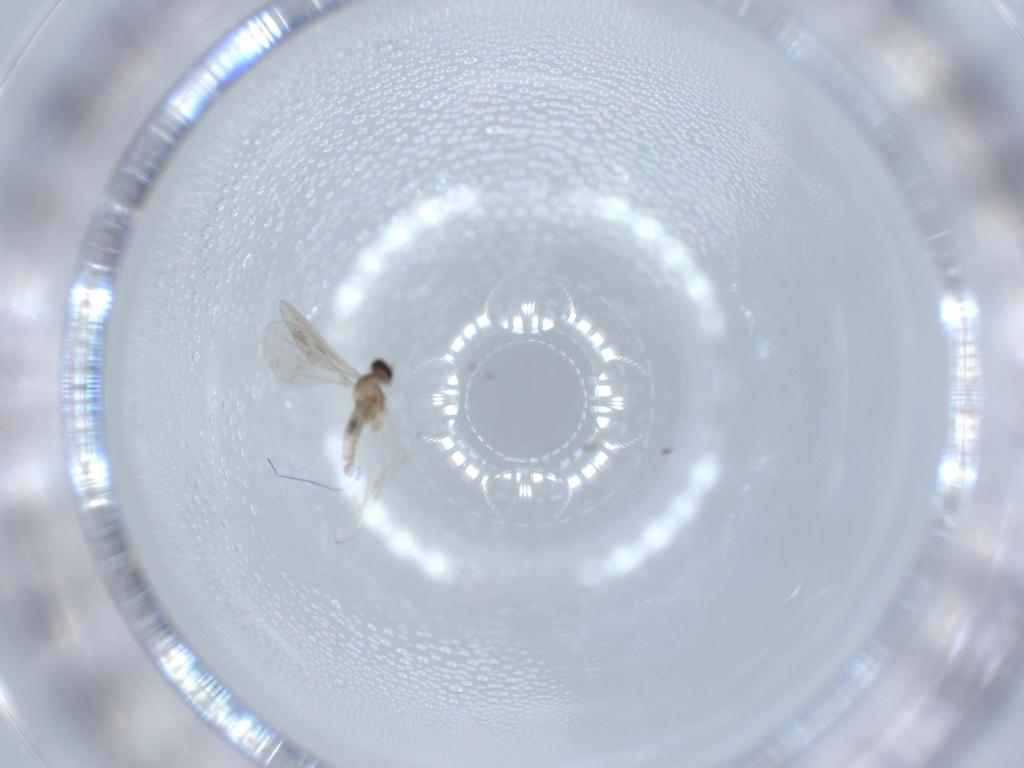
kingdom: Animalia
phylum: Arthropoda
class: Insecta
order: Diptera
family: Cecidomyiidae
